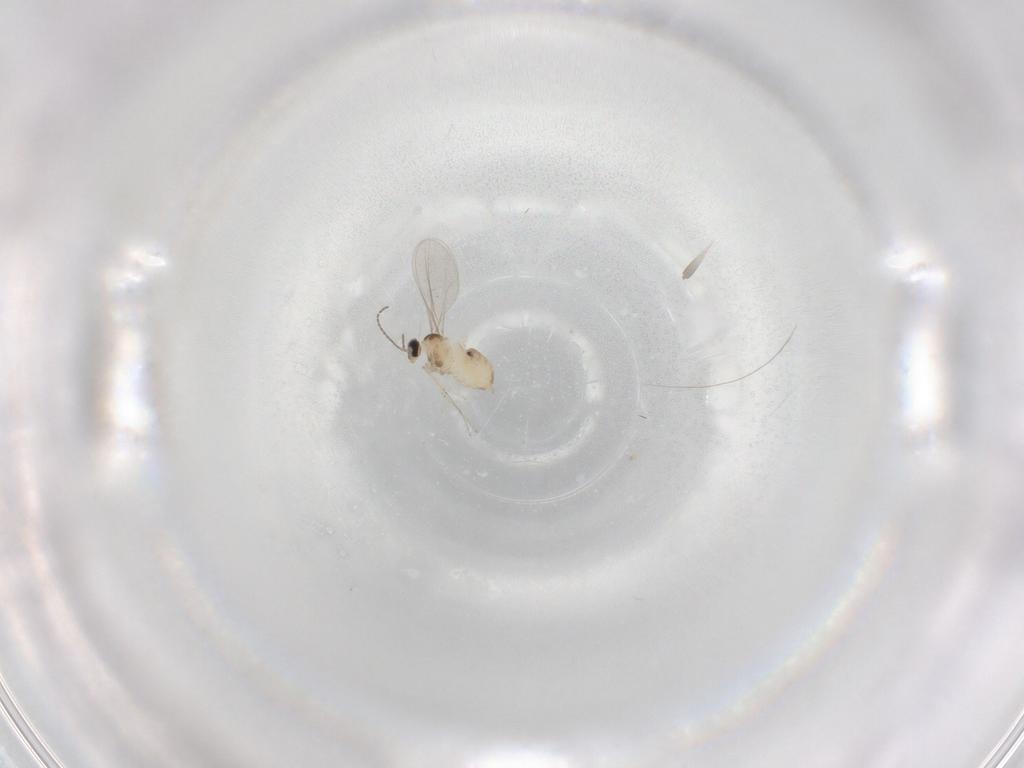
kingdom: Animalia
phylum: Arthropoda
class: Insecta
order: Diptera
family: Cecidomyiidae
